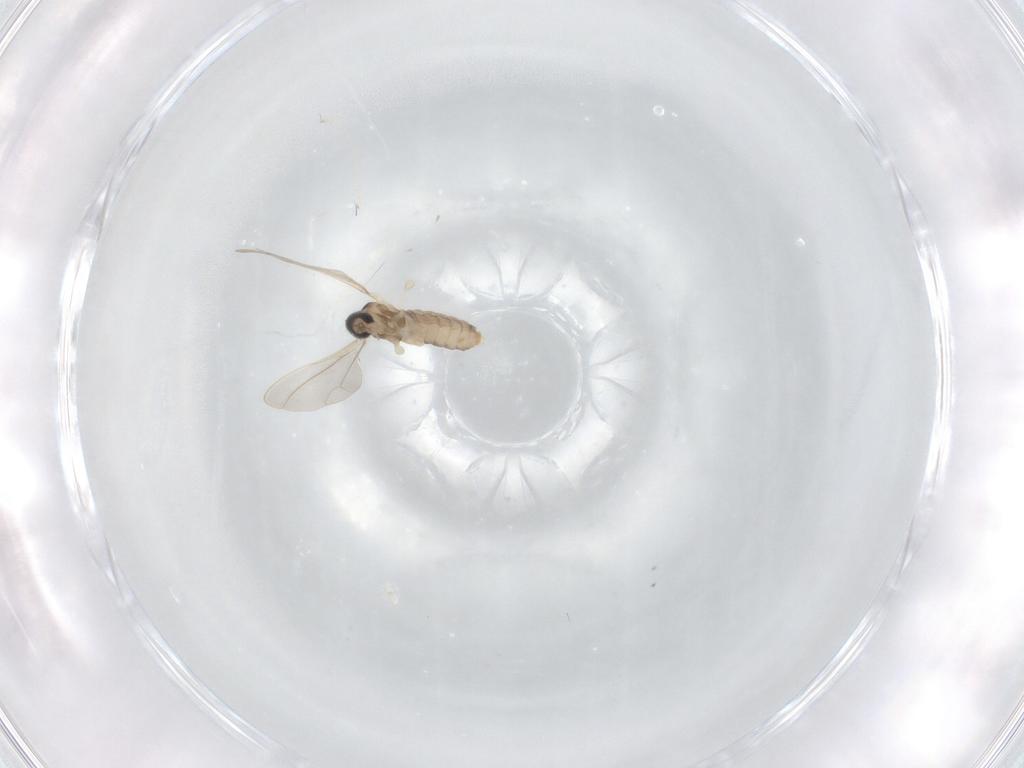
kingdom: Animalia
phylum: Arthropoda
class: Insecta
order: Diptera
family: Cecidomyiidae
